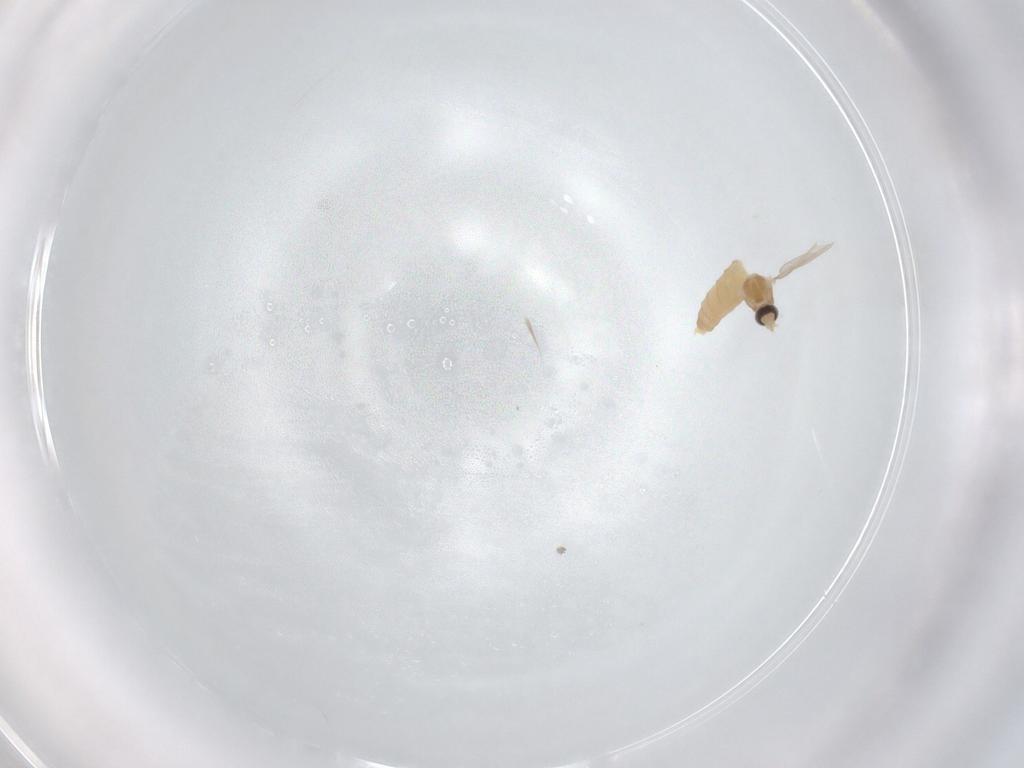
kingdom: Animalia
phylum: Arthropoda
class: Insecta
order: Diptera
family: Cecidomyiidae
